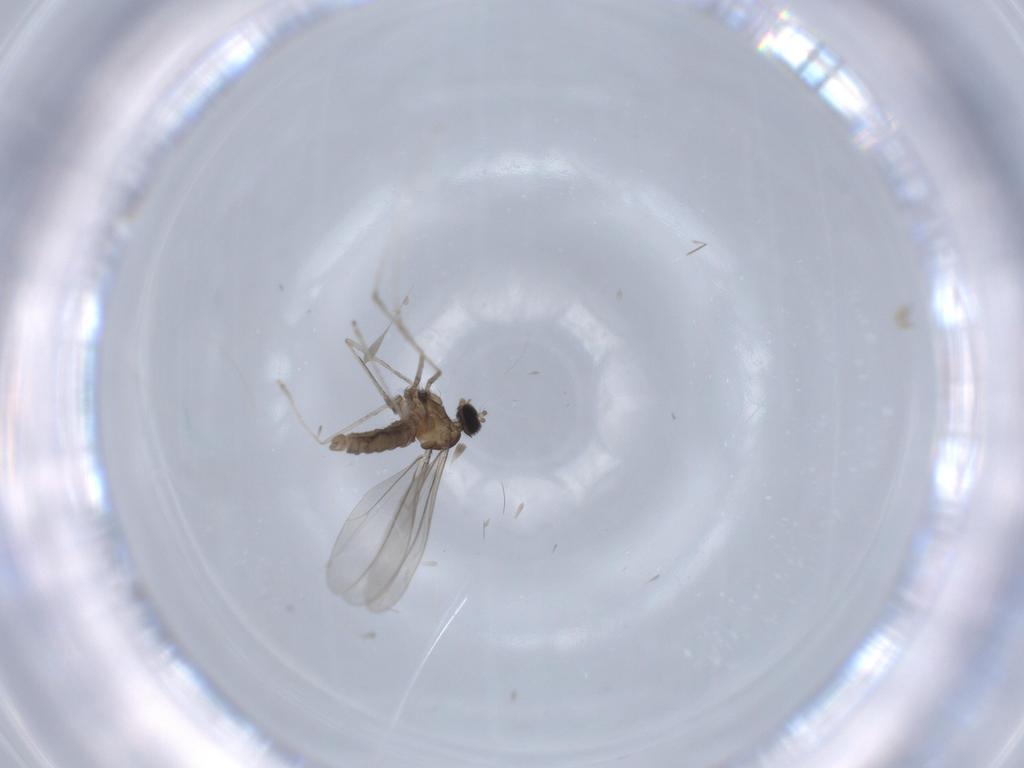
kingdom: Animalia
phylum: Arthropoda
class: Insecta
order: Diptera
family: Cecidomyiidae
